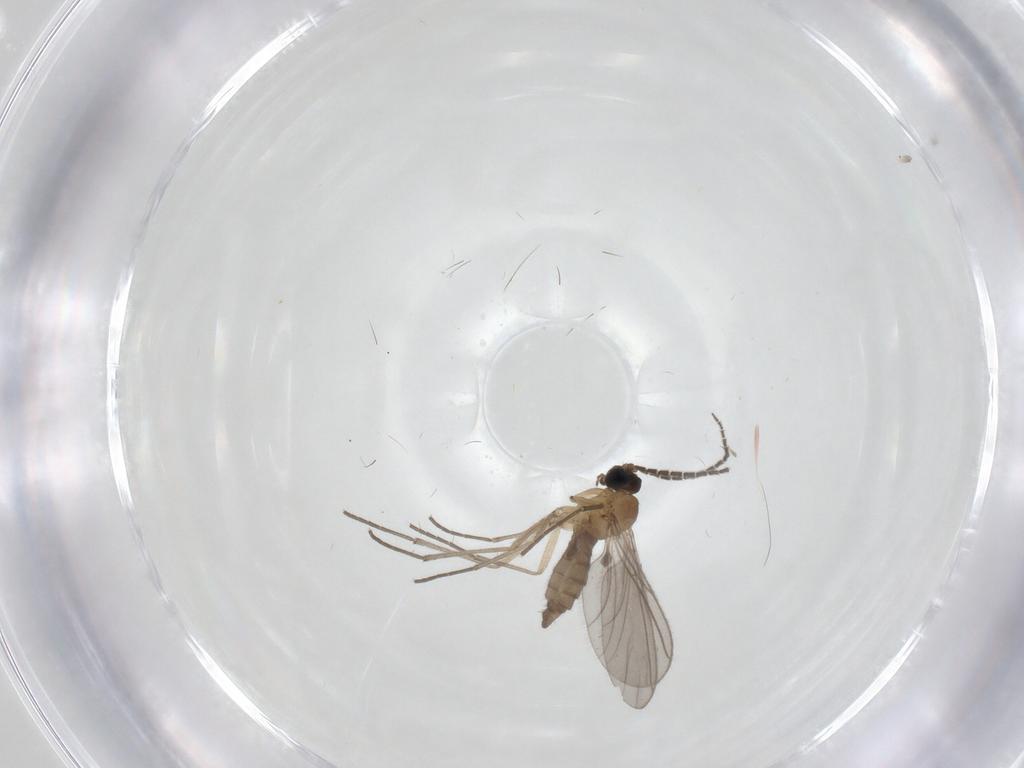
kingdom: Animalia
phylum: Arthropoda
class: Insecta
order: Diptera
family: Sciaridae
